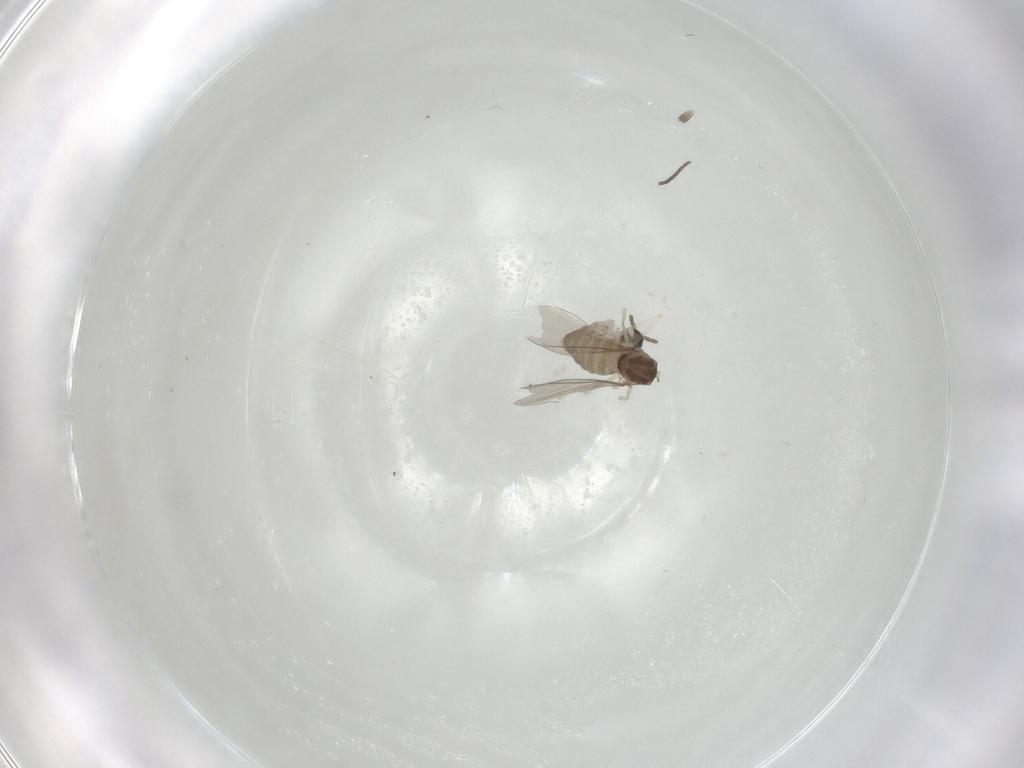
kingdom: Animalia
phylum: Arthropoda
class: Insecta
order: Diptera
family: Cecidomyiidae
